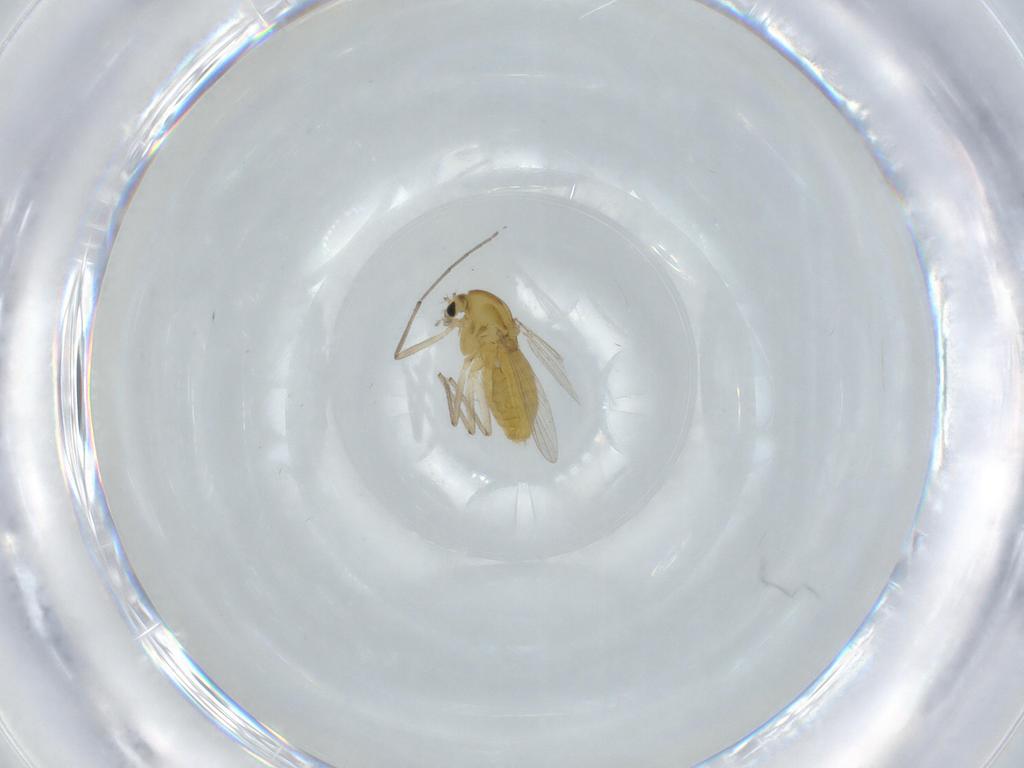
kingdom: Animalia
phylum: Arthropoda
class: Insecta
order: Diptera
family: Chironomidae
